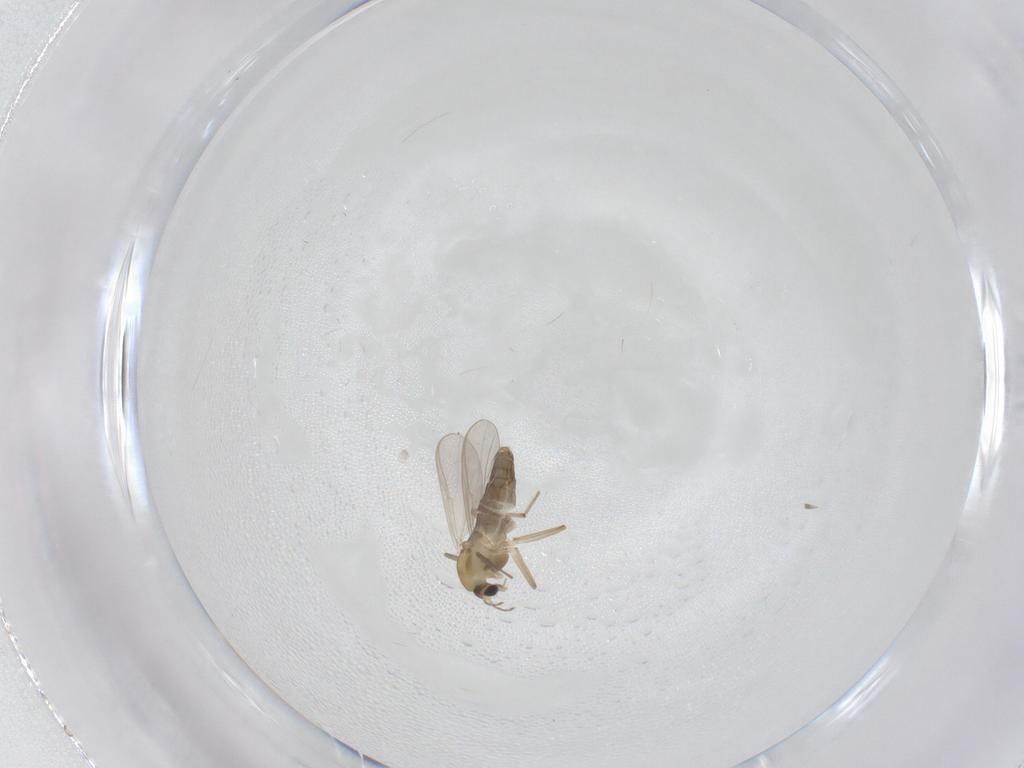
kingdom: Animalia
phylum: Arthropoda
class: Insecta
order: Diptera
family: Chironomidae
